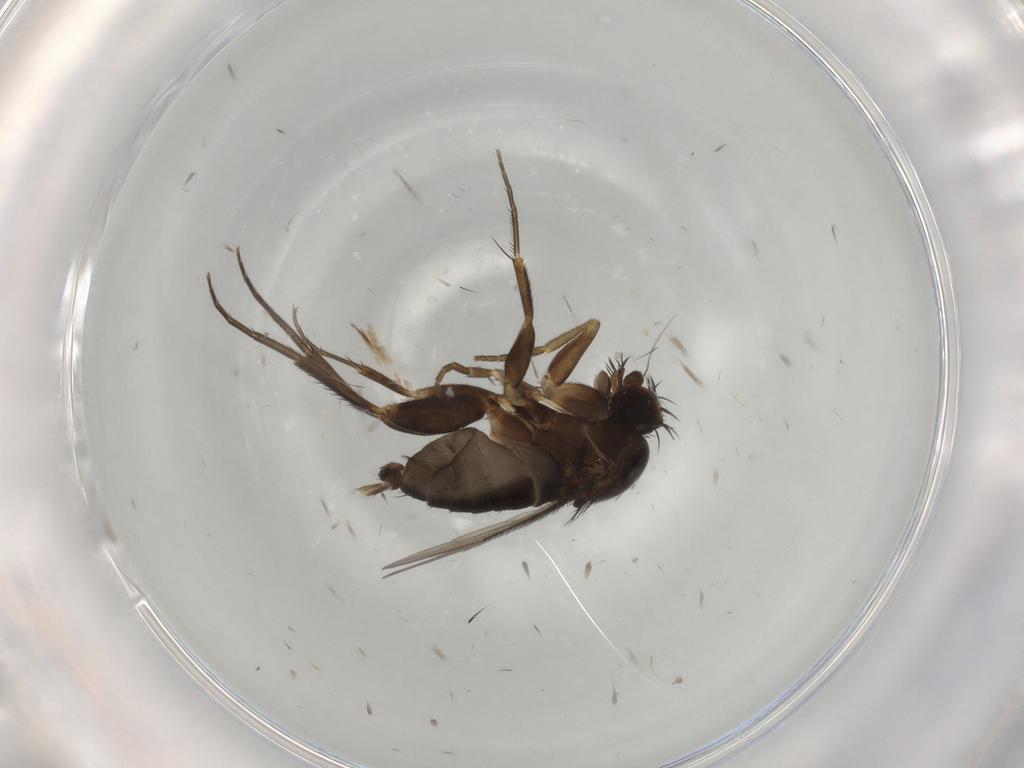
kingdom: Animalia
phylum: Arthropoda
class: Insecta
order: Diptera
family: Phoridae
